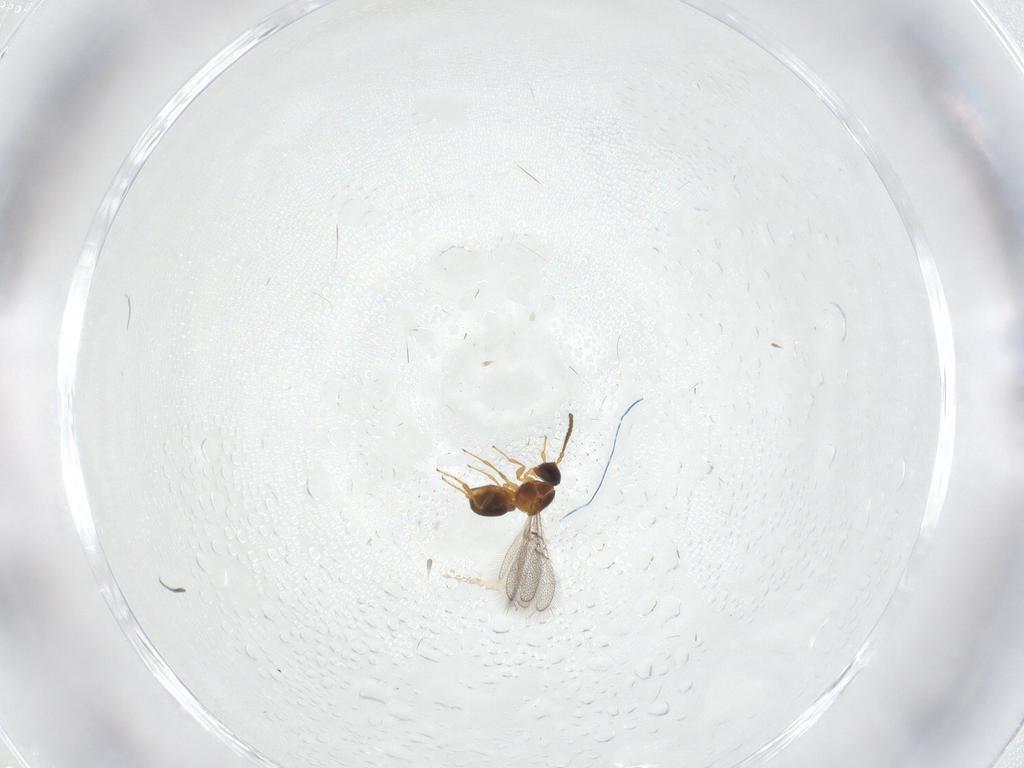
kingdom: Animalia
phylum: Arthropoda
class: Insecta
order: Hymenoptera
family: Figitidae
